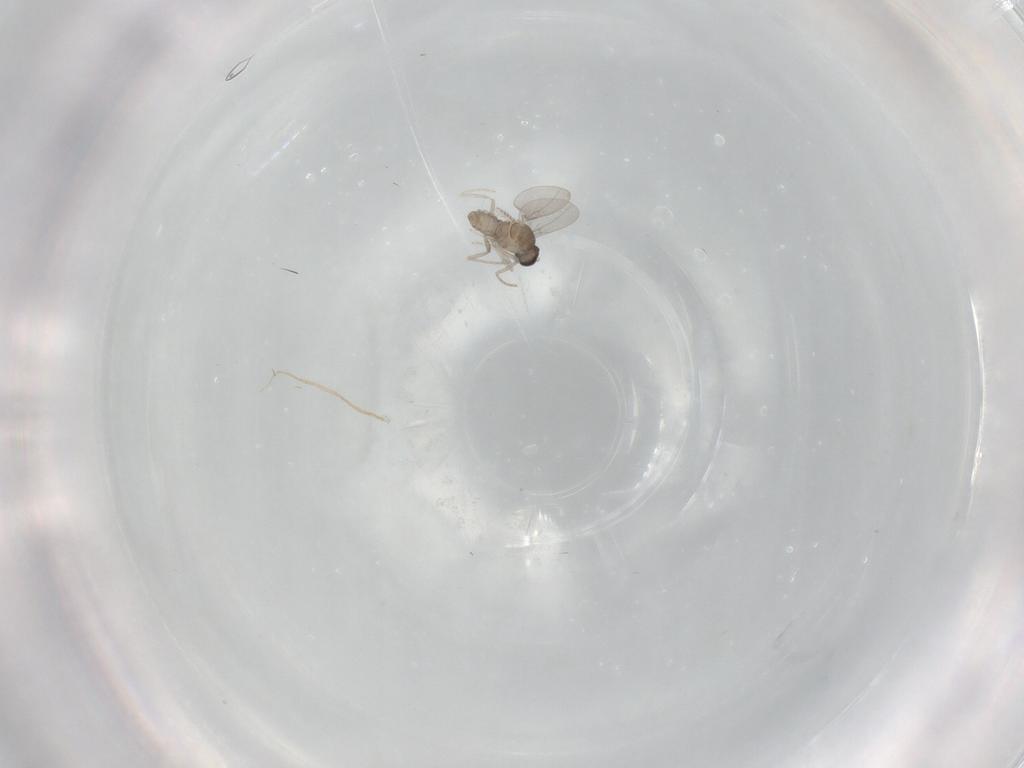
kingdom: Animalia
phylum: Arthropoda
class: Insecta
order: Diptera
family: Cecidomyiidae
